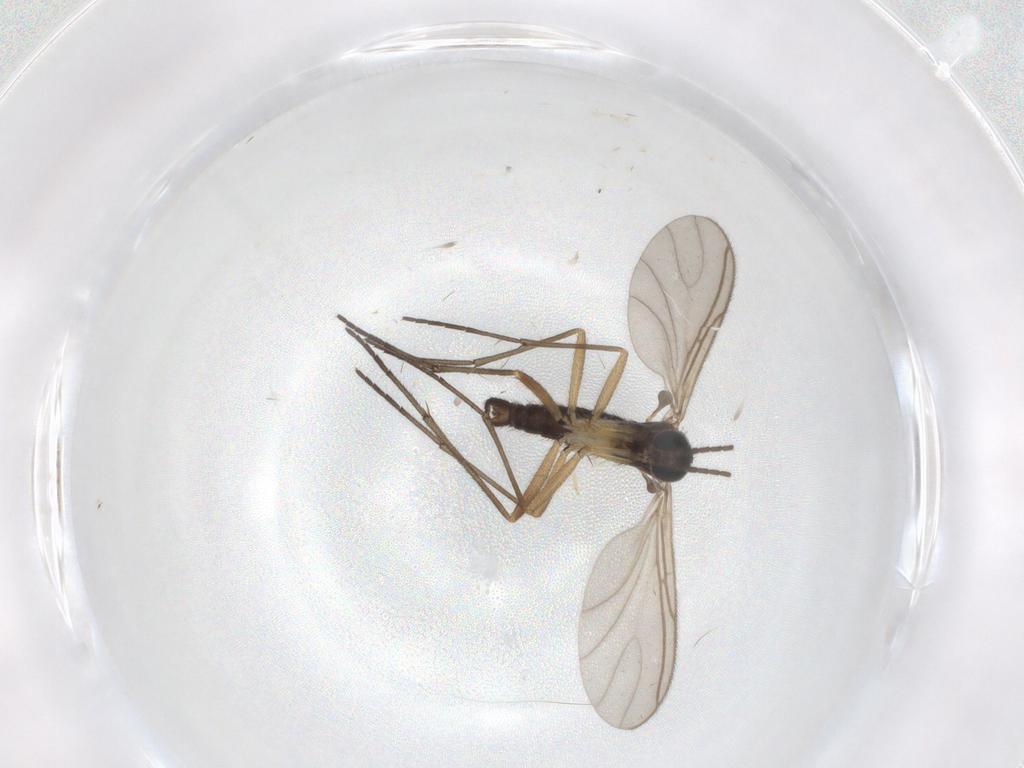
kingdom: Animalia
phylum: Arthropoda
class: Insecta
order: Diptera
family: Sciaridae
